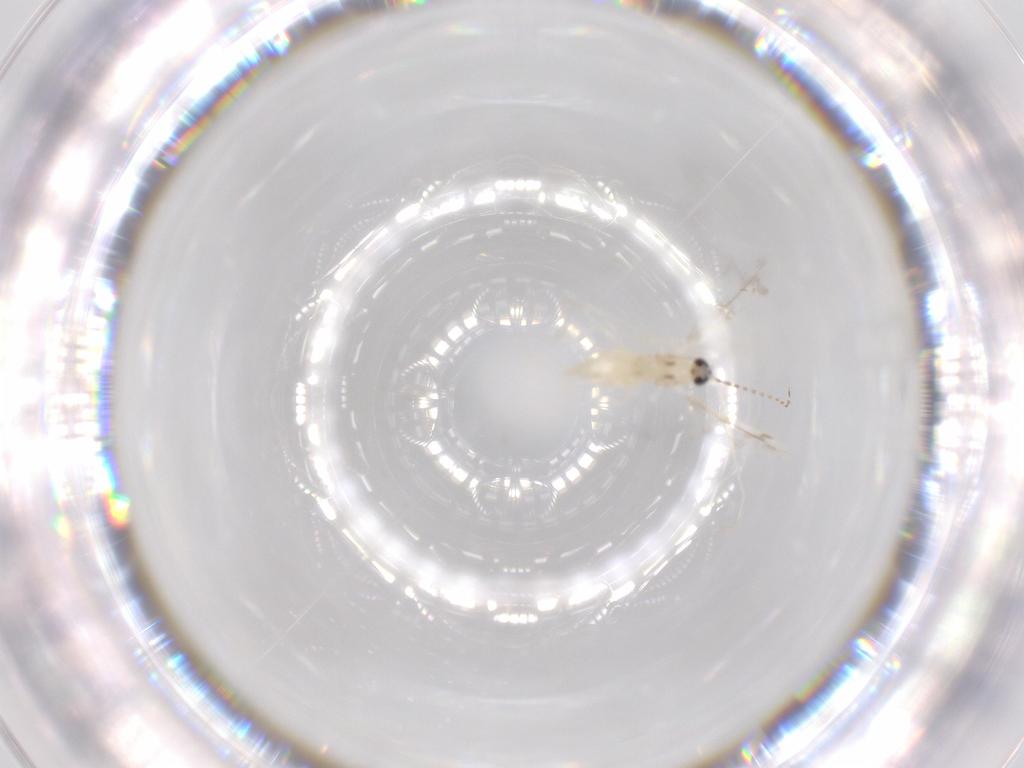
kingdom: Animalia
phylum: Arthropoda
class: Insecta
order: Diptera
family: Cecidomyiidae
